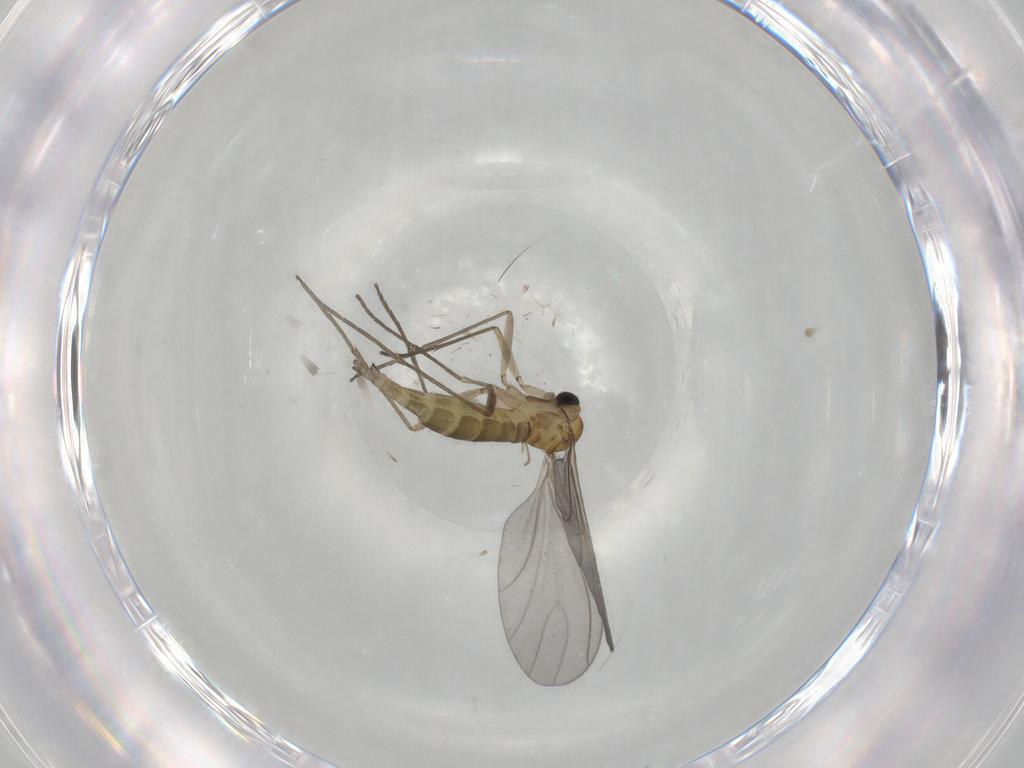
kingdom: Animalia
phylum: Arthropoda
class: Insecta
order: Diptera
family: Sciaridae
